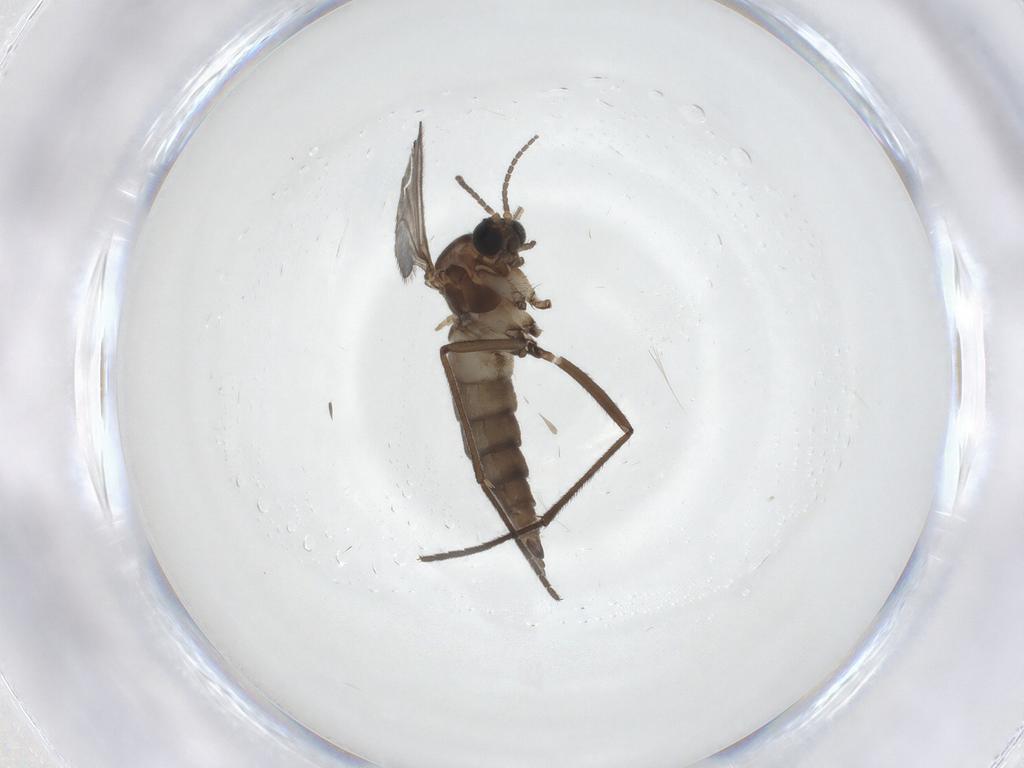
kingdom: Animalia
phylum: Arthropoda
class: Insecta
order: Diptera
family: Sciaridae
